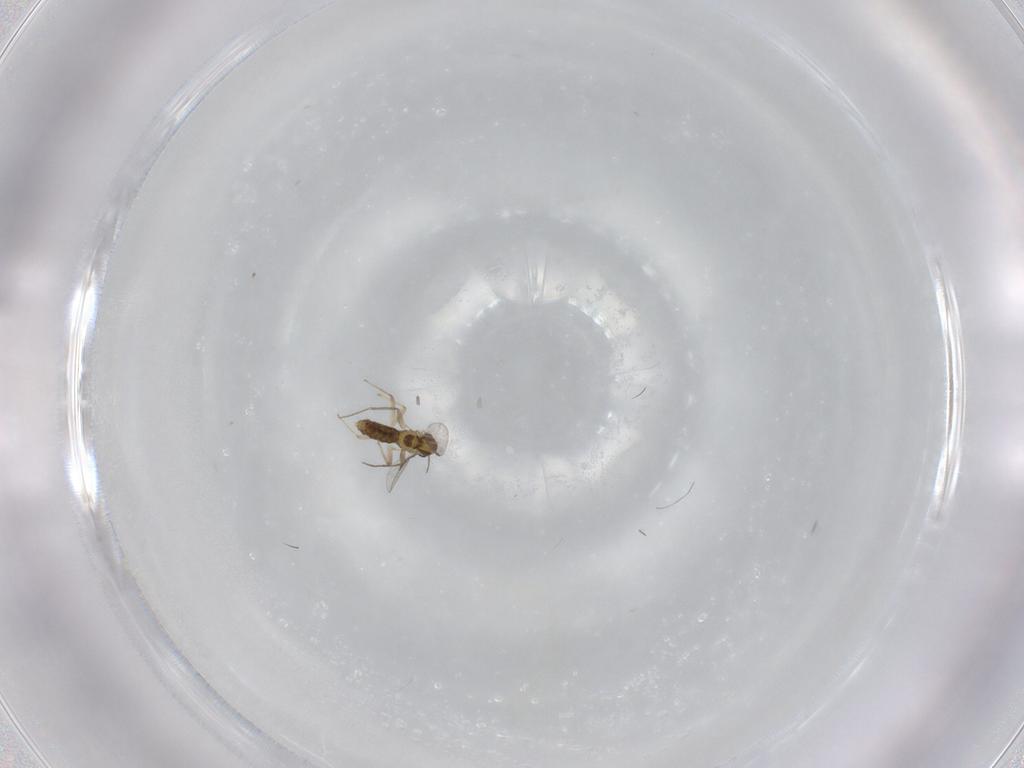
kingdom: Animalia
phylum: Arthropoda
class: Insecta
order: Diptera
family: Chironomidae
